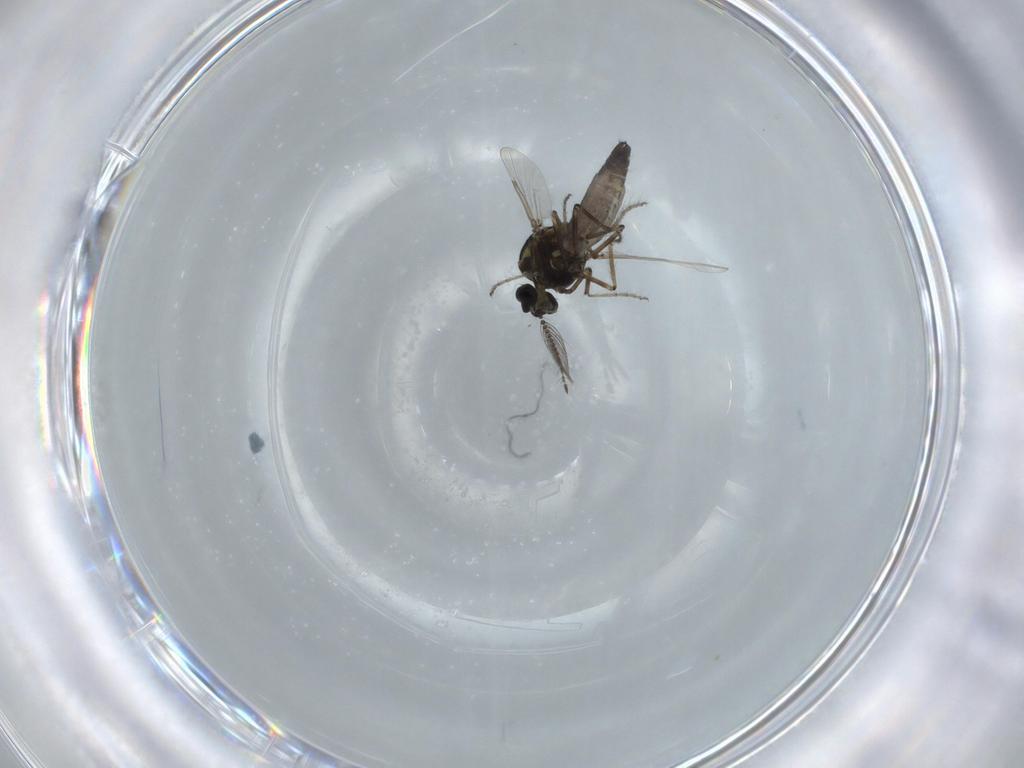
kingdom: Animalia
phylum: Arthropoda
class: Insecta
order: Diptera
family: Ceratopogonidae
